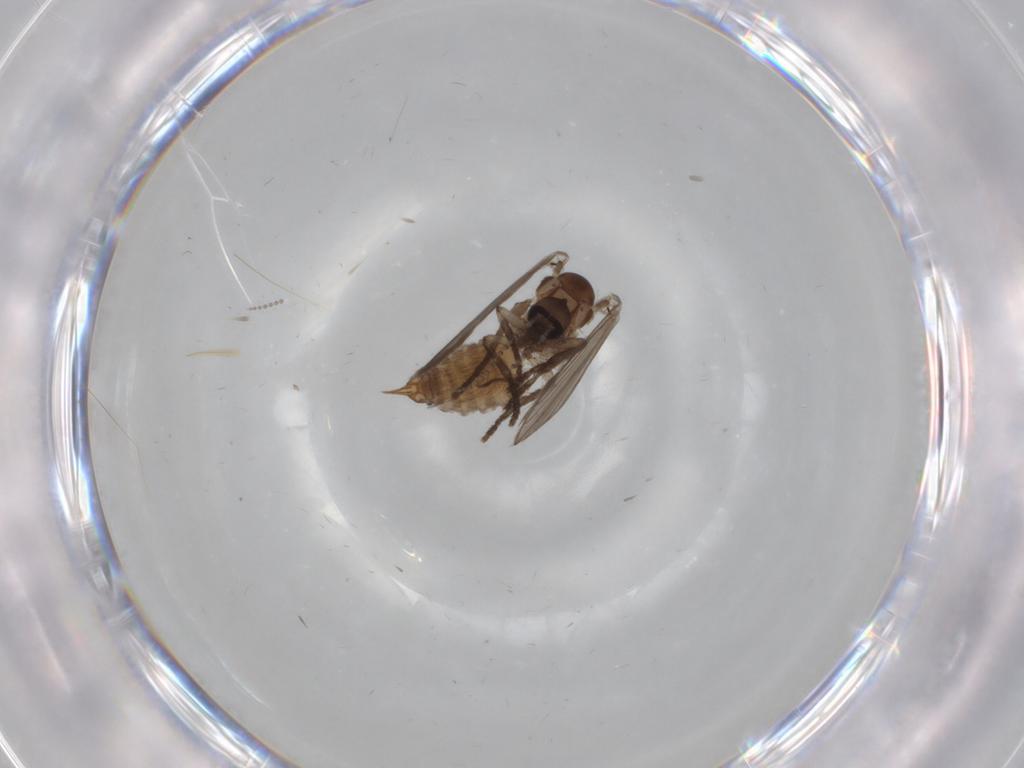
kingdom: Animalia
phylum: Arthropoda
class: Insecta
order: Diptera
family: Psychodidae
